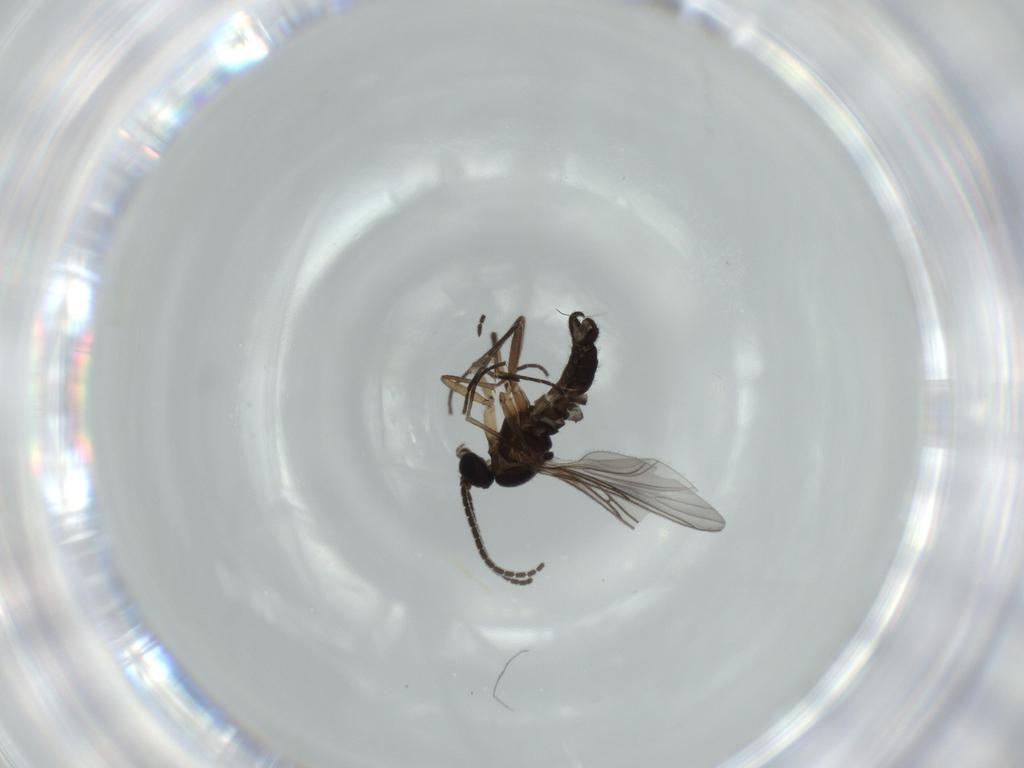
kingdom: Animalia
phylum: Arthropoda
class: Insecta
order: Diptera
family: Sciaridae
